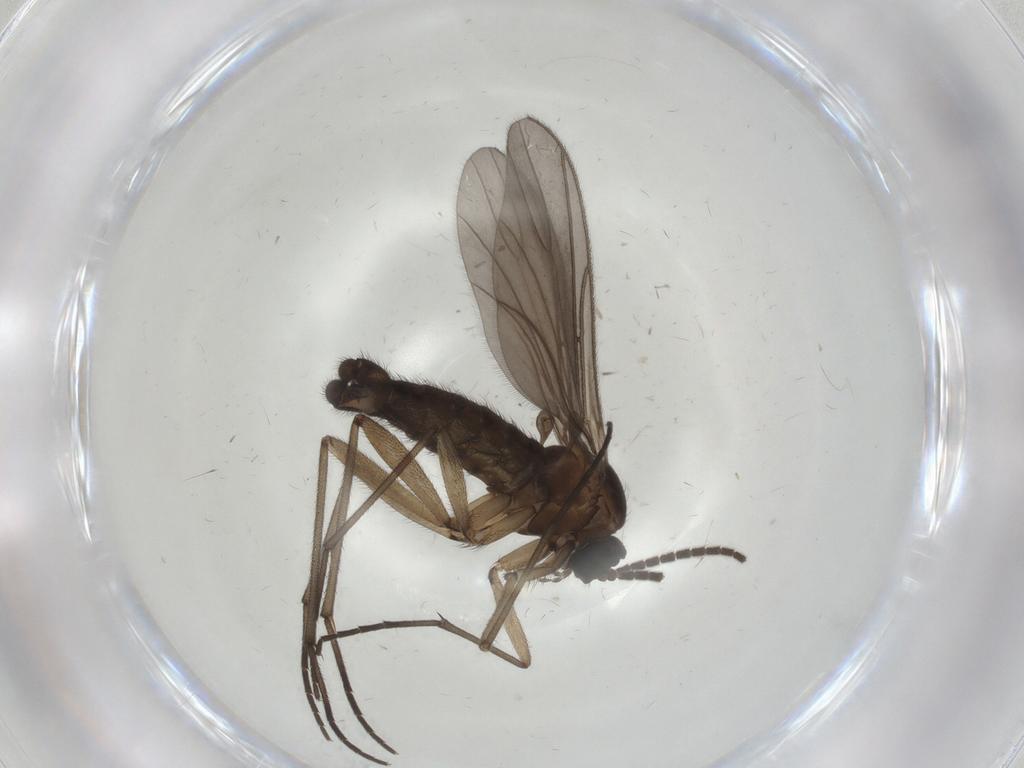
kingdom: Animalia
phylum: Arthropoda
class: Insecta
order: Diptera
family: Sciaridae
